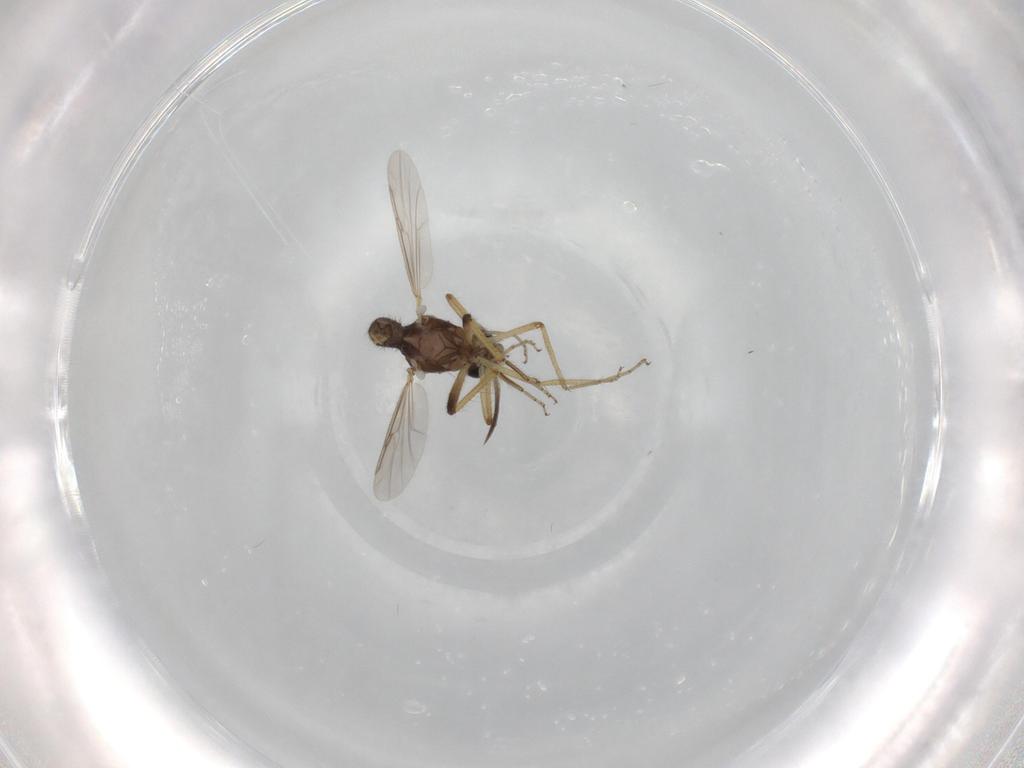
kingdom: Animalia
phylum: Arthropoda
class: Insecta
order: Diptera
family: Ceratopogonidae
